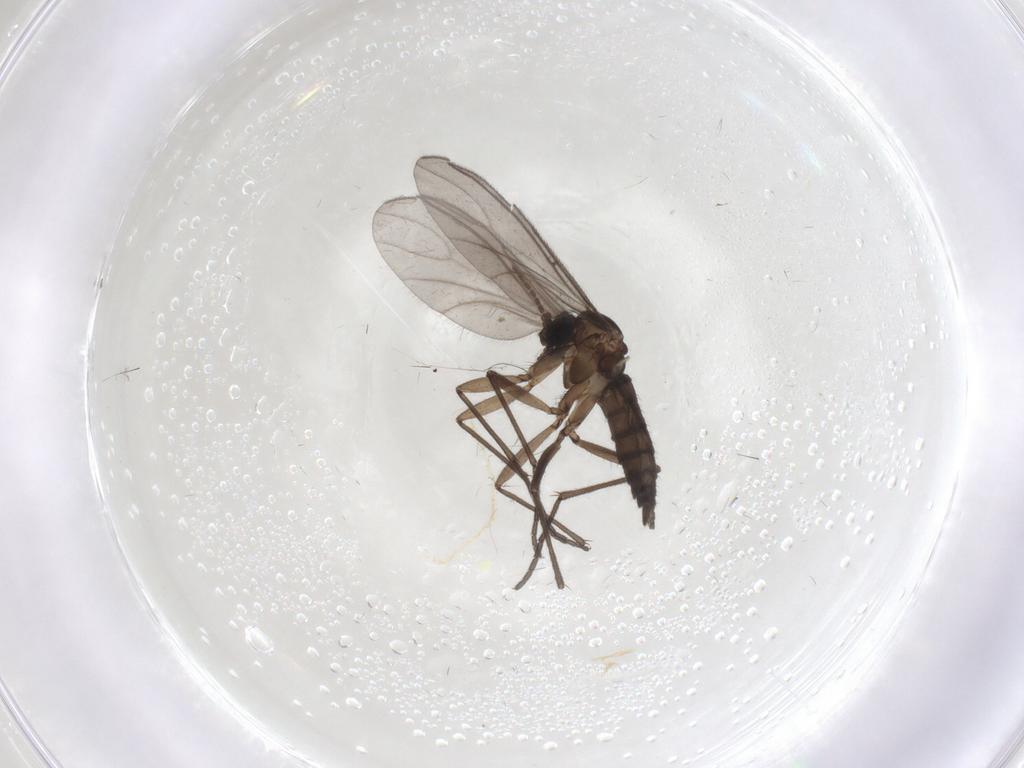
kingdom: Animalia
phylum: Arthropoda
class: Insecta
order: Diptera
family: Sciaridae
